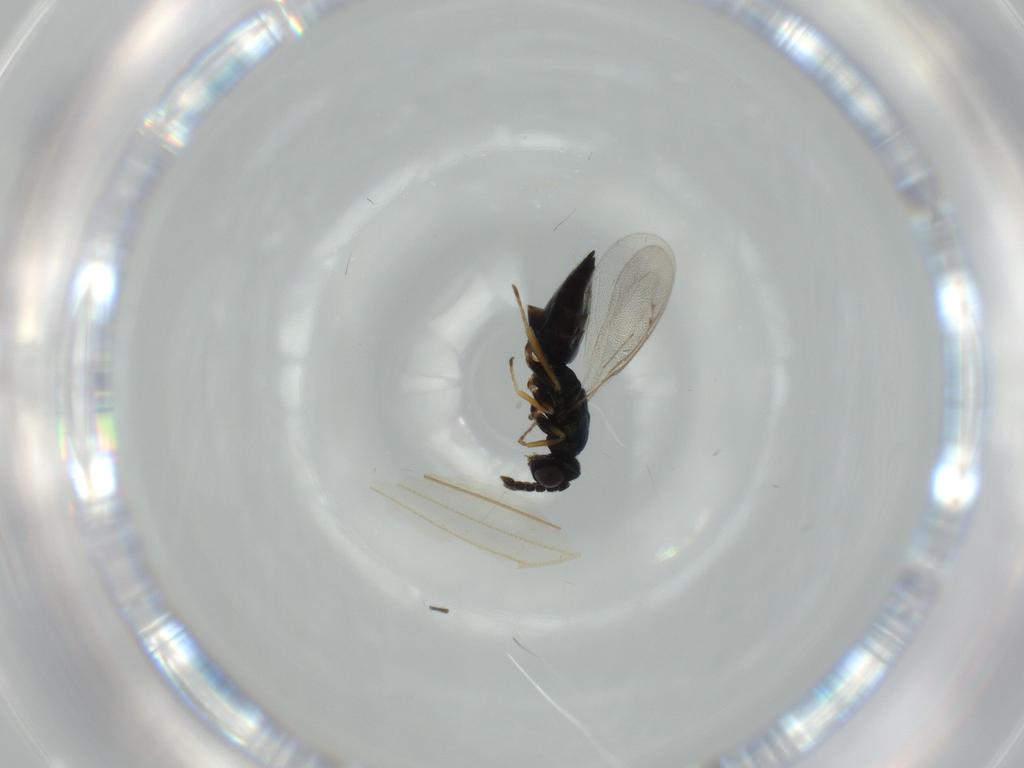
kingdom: Animalia
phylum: Arthropoda
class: Insecta
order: Hymenoptera
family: Eulophidae
